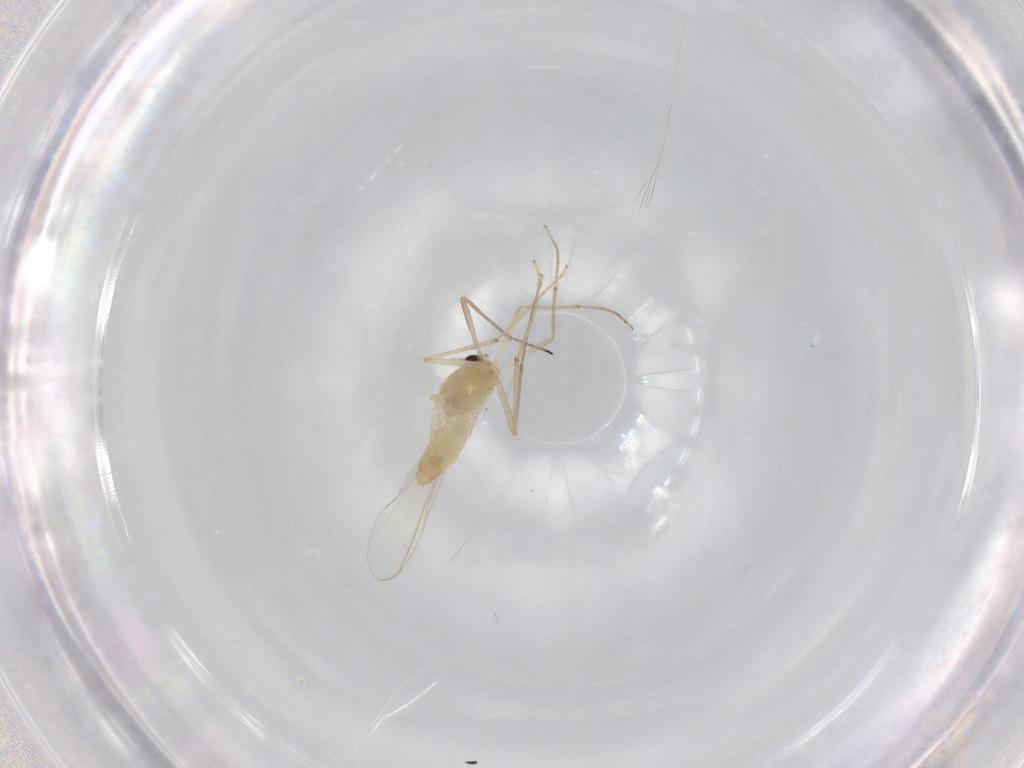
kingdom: Animalia
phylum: Arthropoda
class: Insecta
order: Diptera
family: Chironomidae
